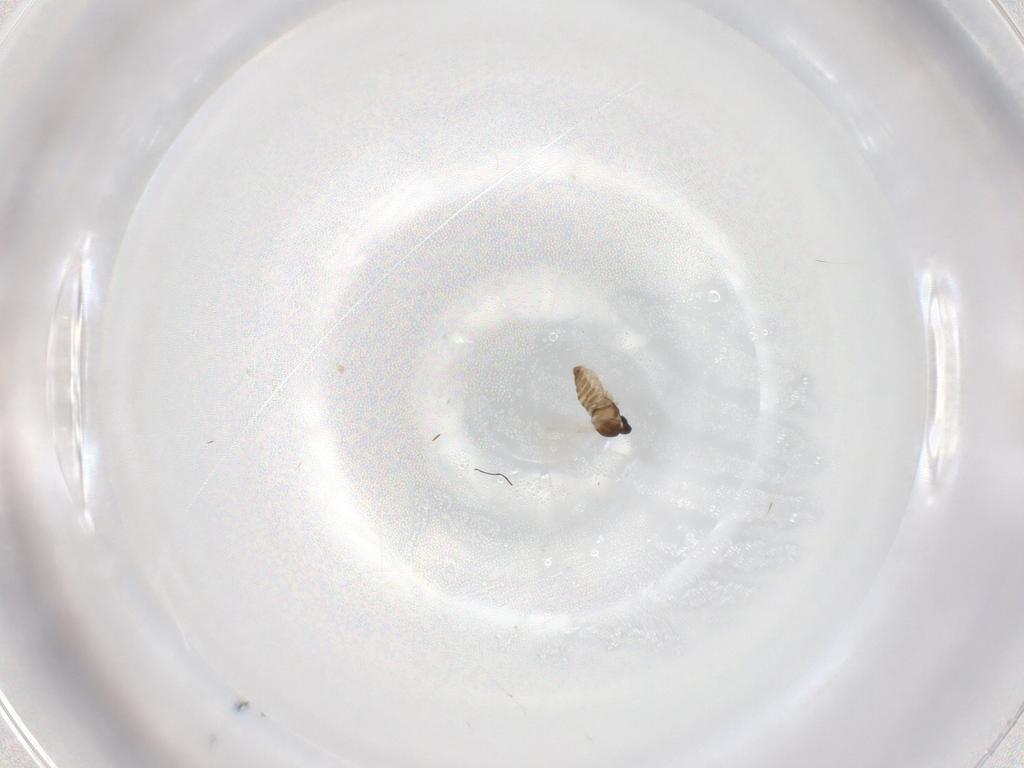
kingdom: Animalia
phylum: Arthropoda
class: Insecta
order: Diptera
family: Cecidomyiidae
